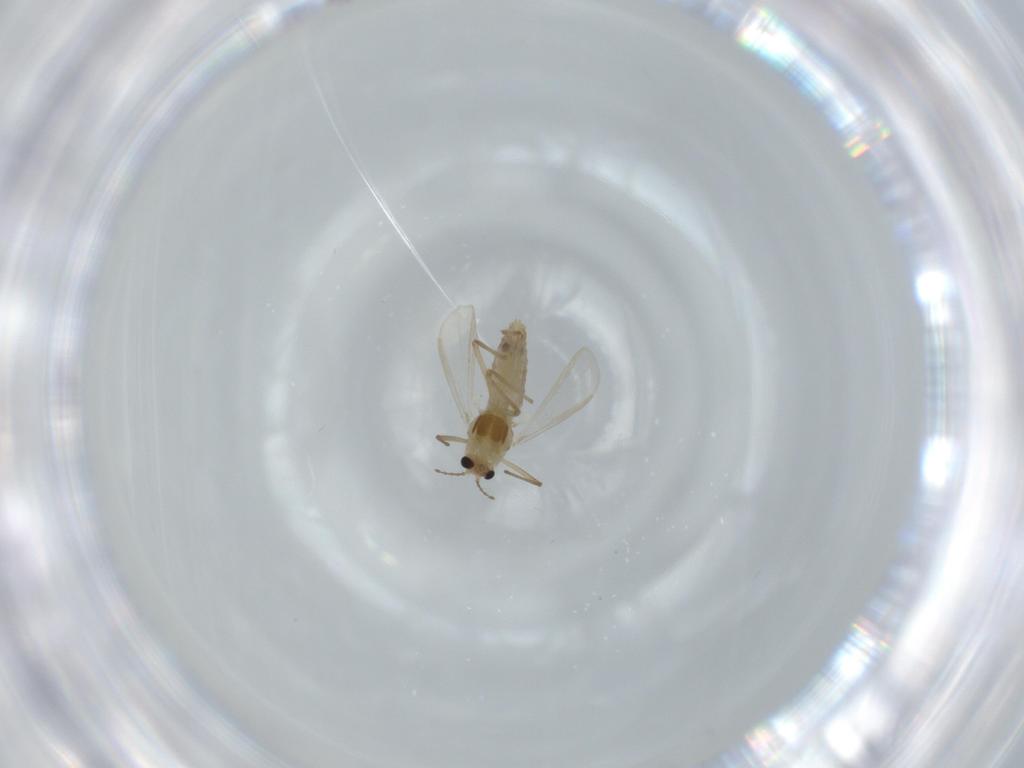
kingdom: Animalia
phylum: Arthropoda
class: Insecta
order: Diptera
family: Chironomidae
